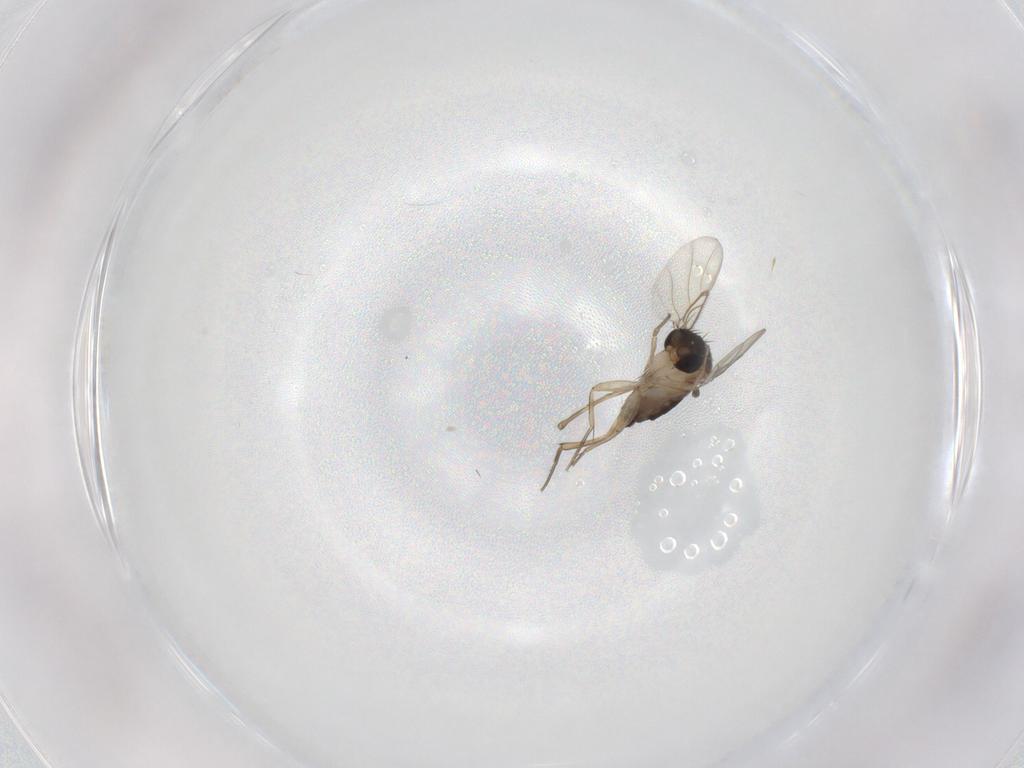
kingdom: Animalia
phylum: Arthropoda
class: Insecta
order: Diptera
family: Phoridae
